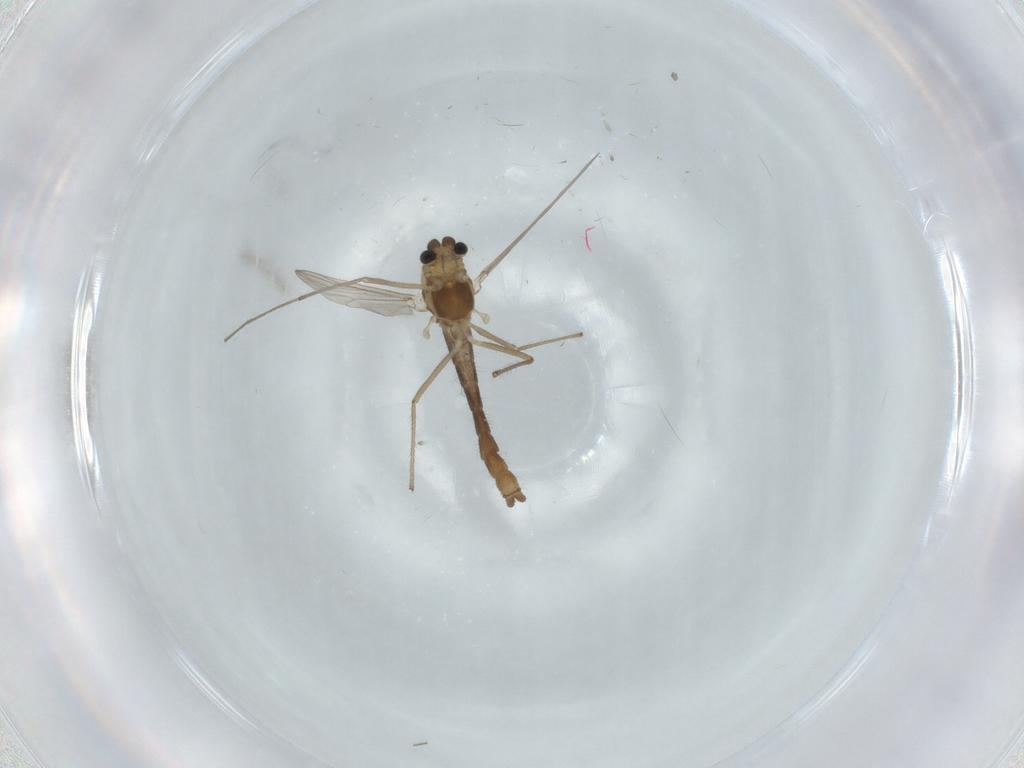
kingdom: Animalia
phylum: Arthropoda
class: Insecta
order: Diptera
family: Chironomidae
